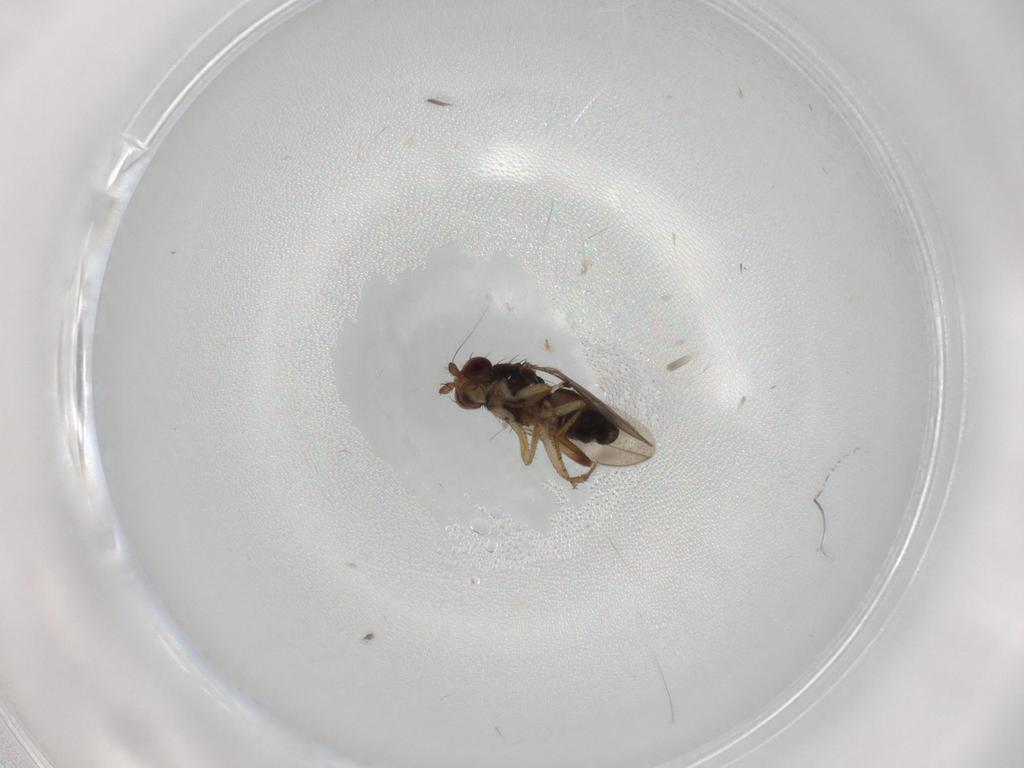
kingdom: Animalia
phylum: Arthropoda
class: Insecta
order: Diptera
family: Sphaeroceridae
